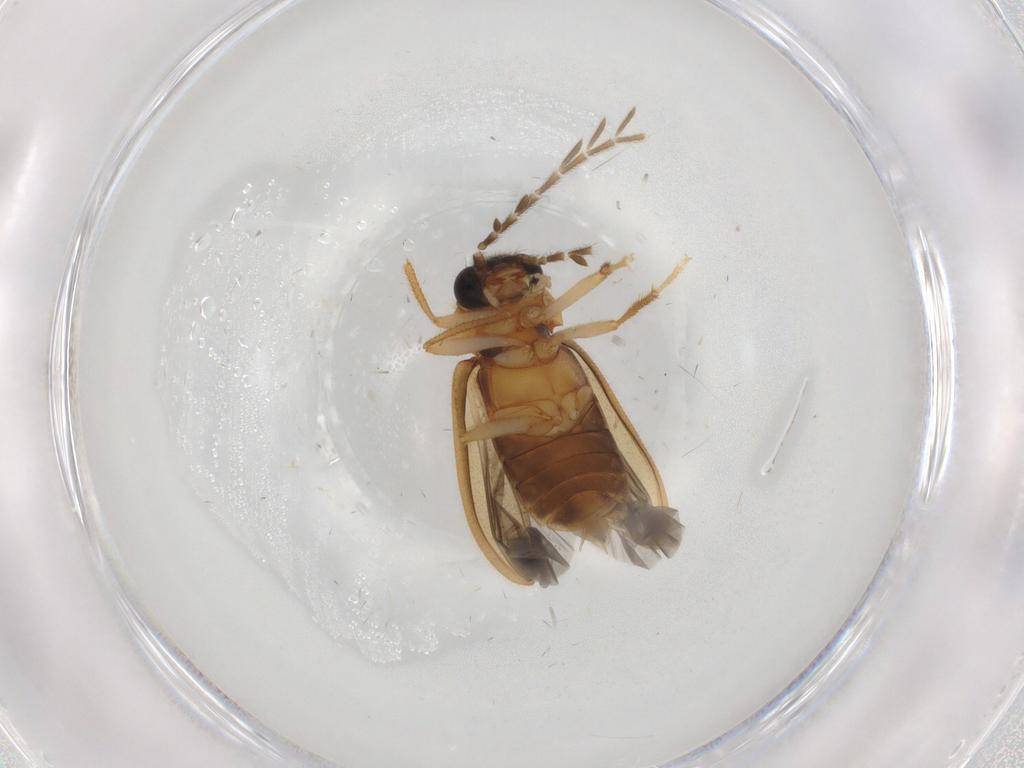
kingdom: Animalia
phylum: Arthropoda
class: Insecta
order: Coleoptera
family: Ptilodactylidae
